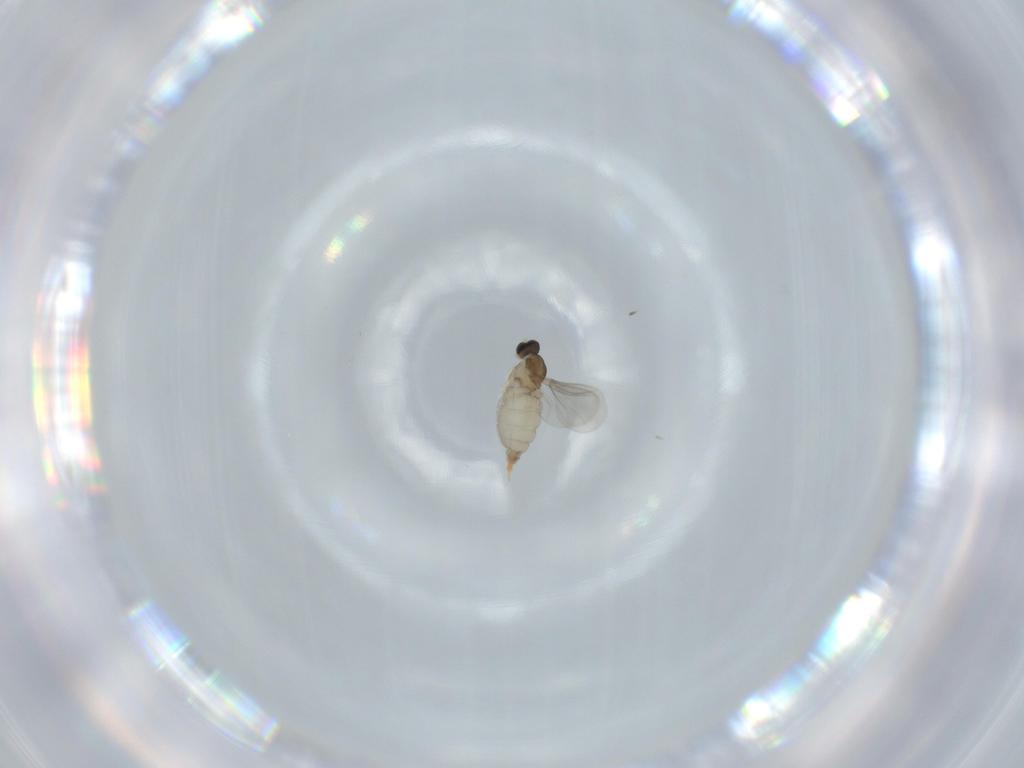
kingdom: Animalia
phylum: Arthropoda
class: Insecta
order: Diptera
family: Cecidomyiidae
